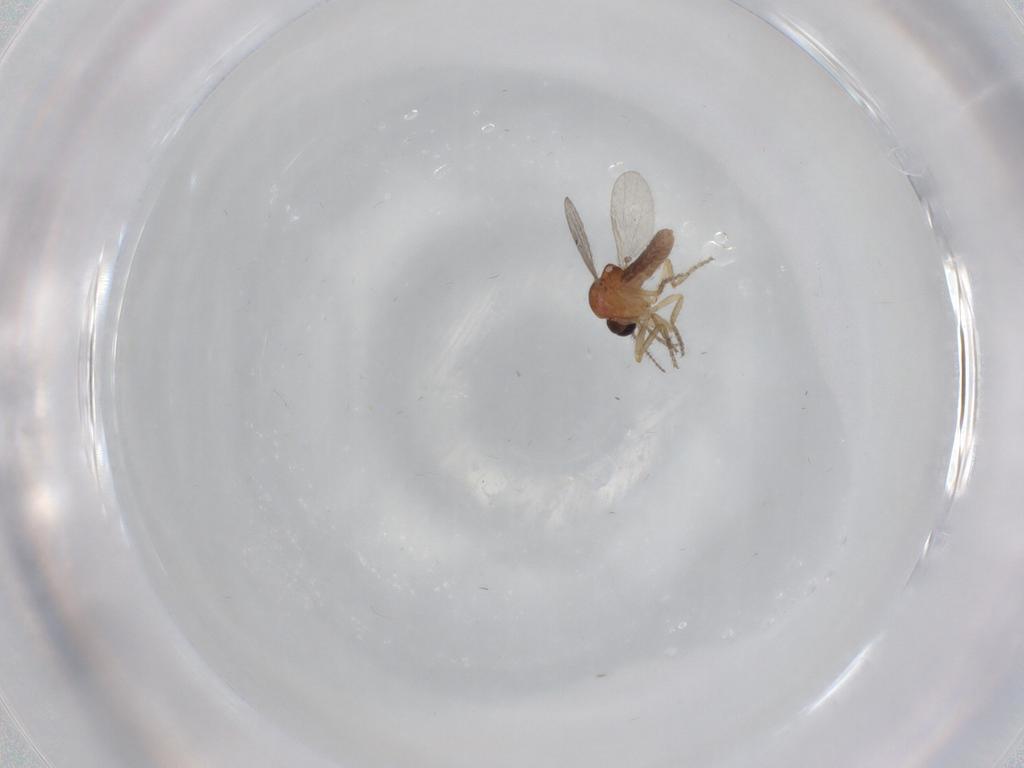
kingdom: Animalia
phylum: Arthropoda
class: Insecta
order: Diptera
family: Ceratopogonidae
